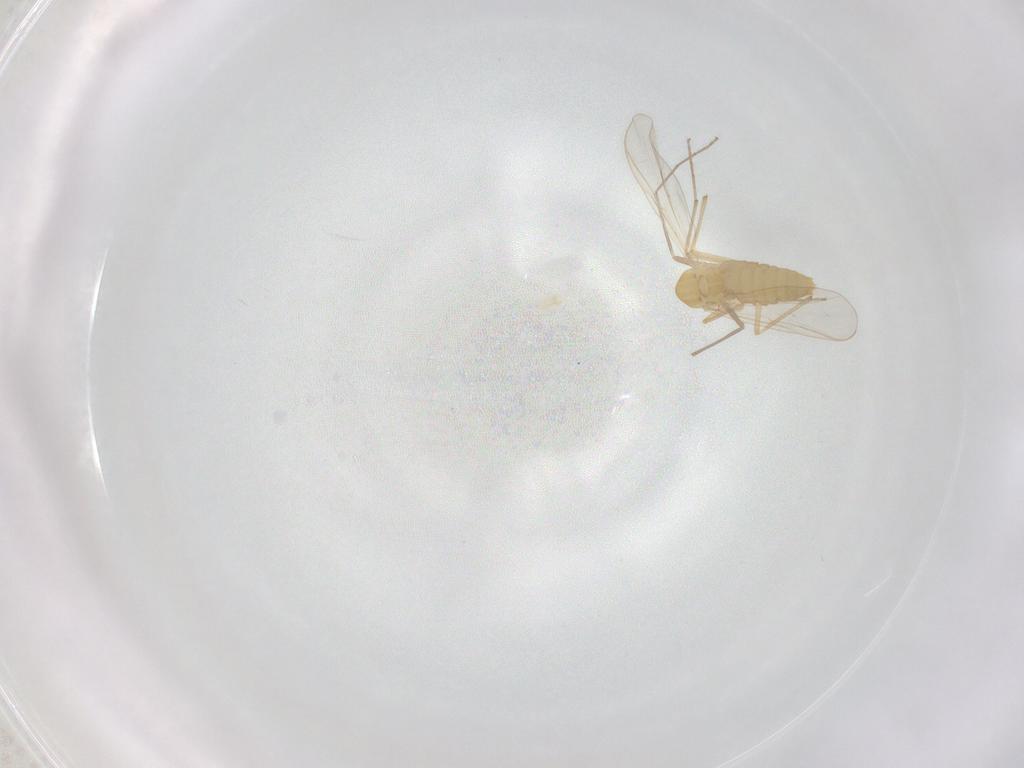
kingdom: Animalia
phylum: Arthropoda
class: Insecta
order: Diptera
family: Chironomidae
